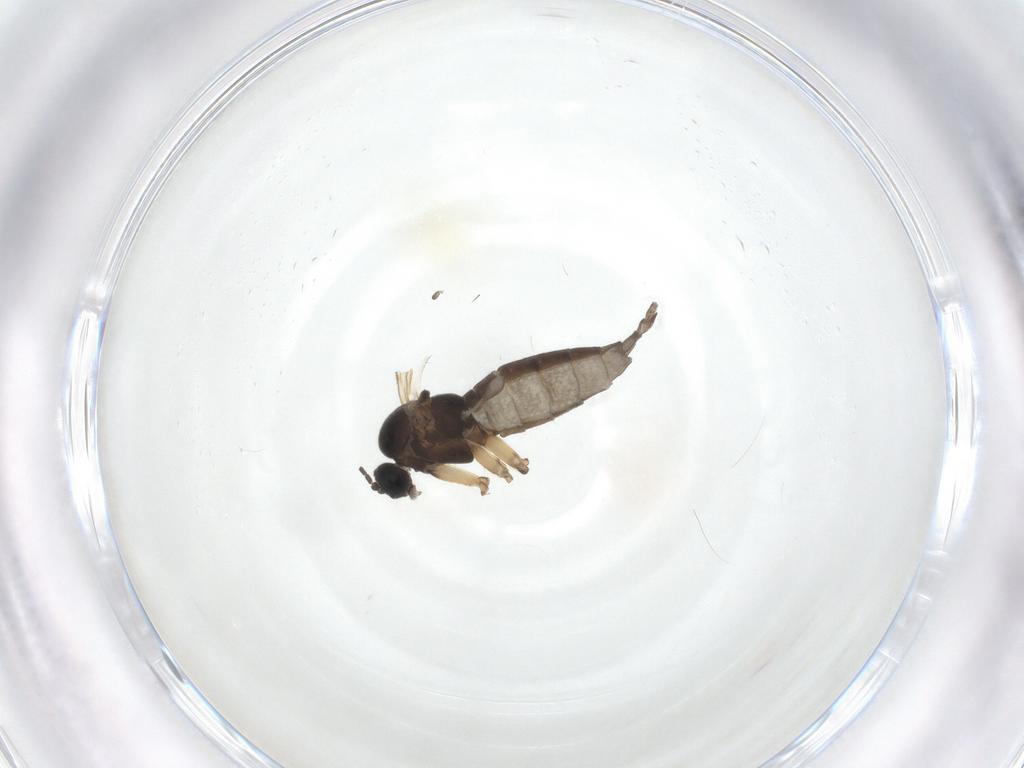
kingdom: Animalia
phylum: Arthropoda
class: Insecta
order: Diptera
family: Sciaridae
